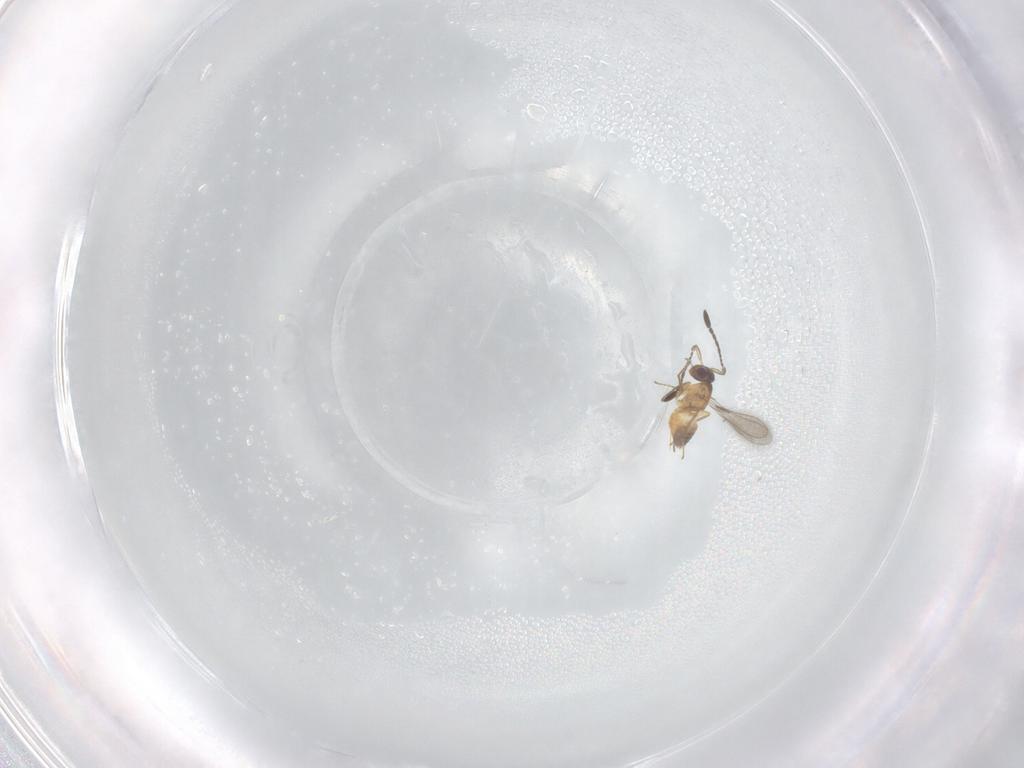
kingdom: Animalia
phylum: Arthropoda
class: Insecta
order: Hymenoptera
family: Mymaridae
